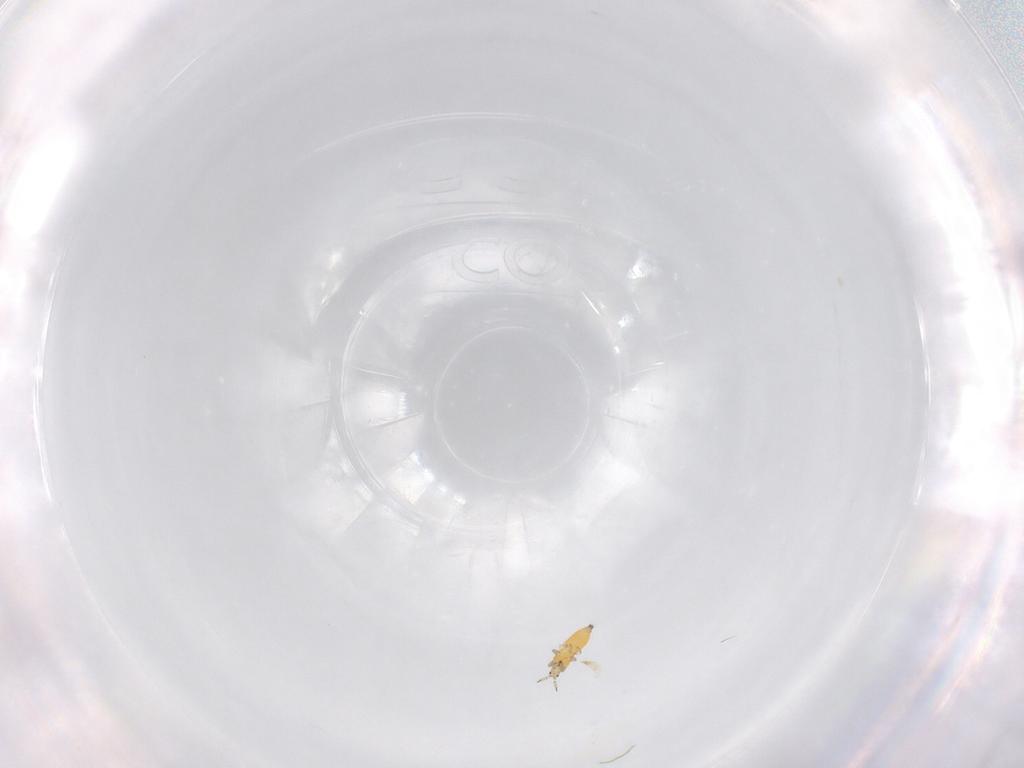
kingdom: Animalia
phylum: Arthropoda
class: Insecta
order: Thysanoptera
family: Thripidae
